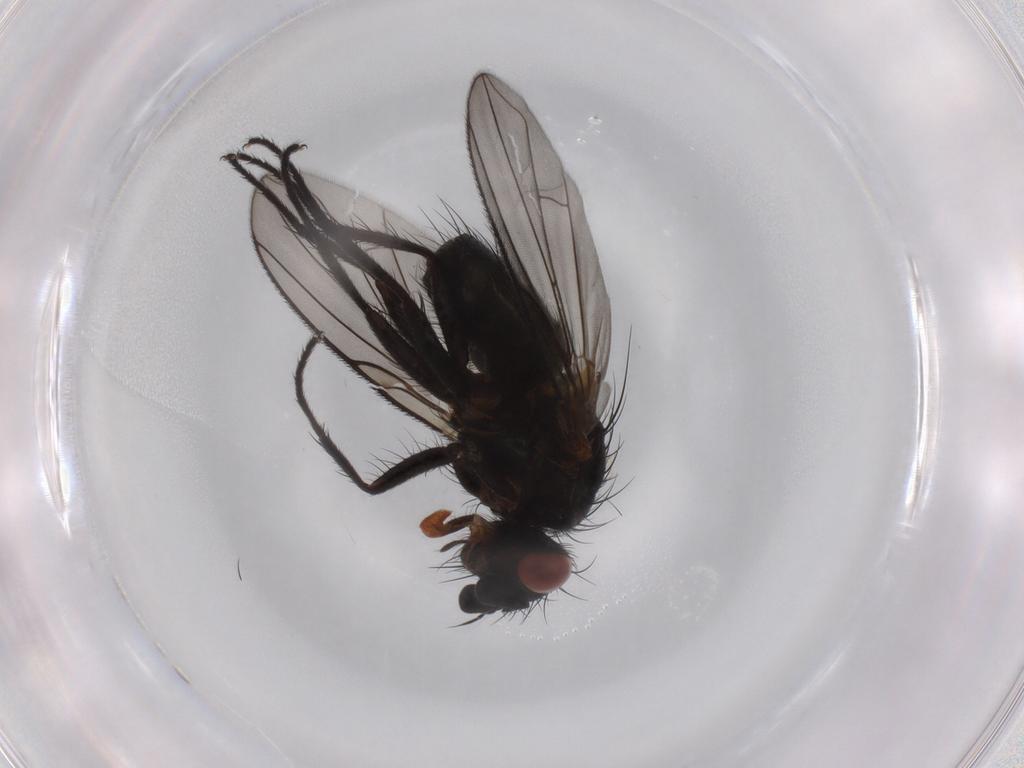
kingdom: Animalia
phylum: Arthropoda
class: Insecta
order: Diptera
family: Tachinidae
